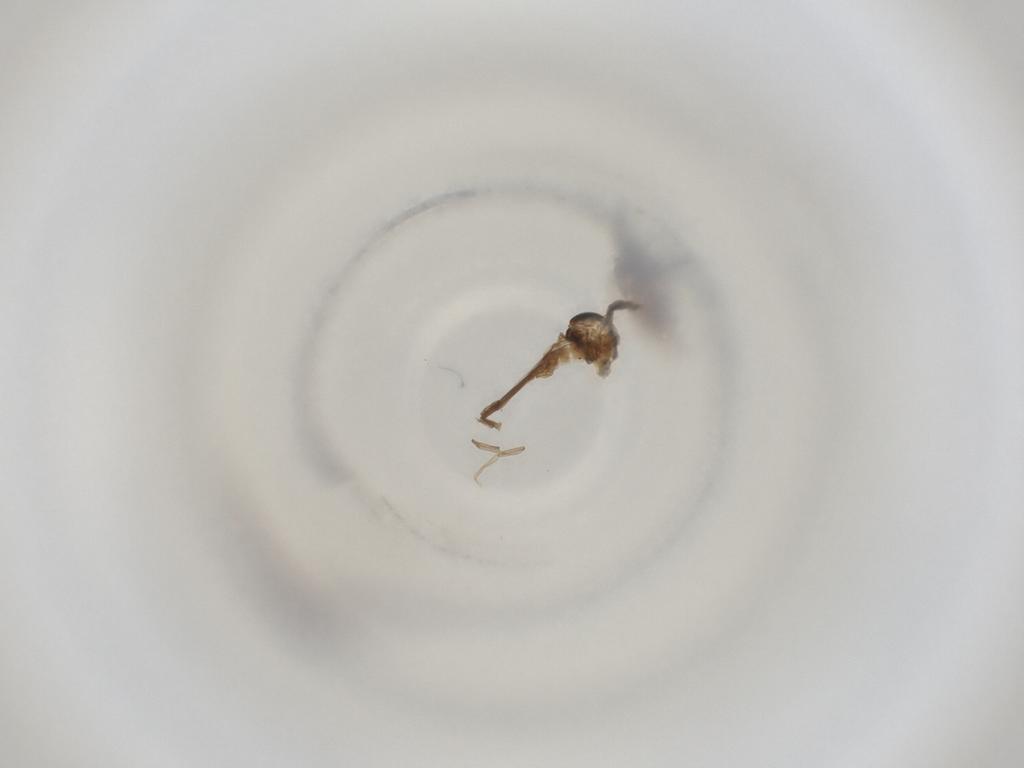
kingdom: Animalia
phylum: Arthropoda
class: Insecta
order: Diptera
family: Cecidomyiidae
